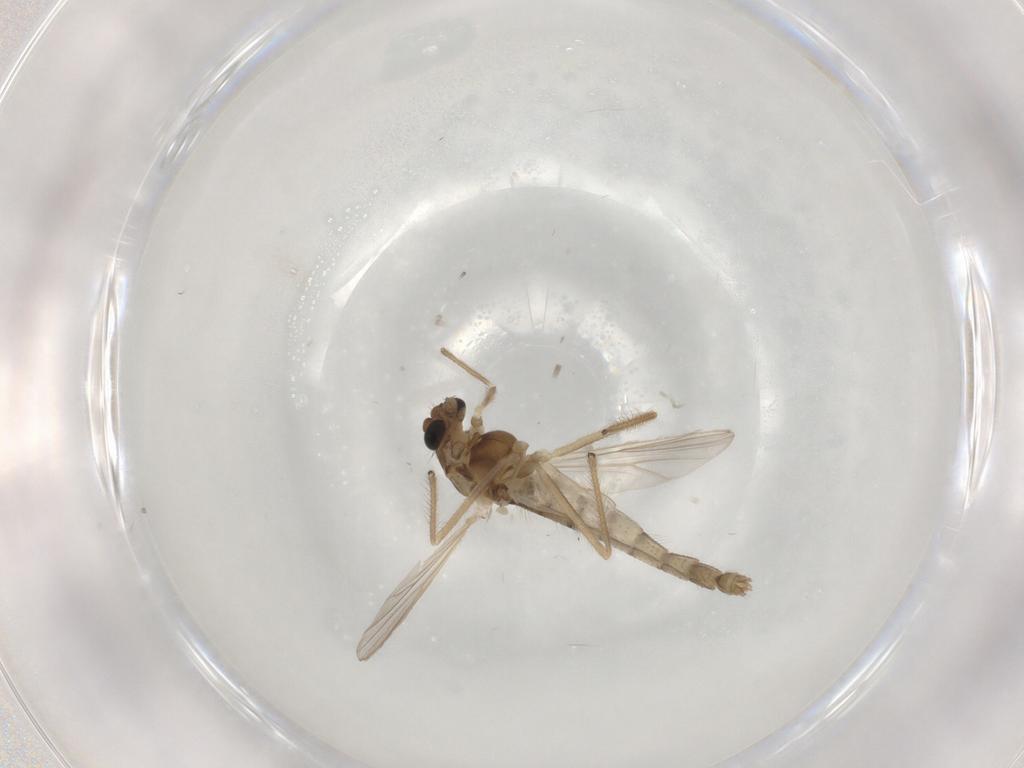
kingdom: Animalia
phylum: Arthropoda
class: Insecta
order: Diptera
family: Chironomidae
